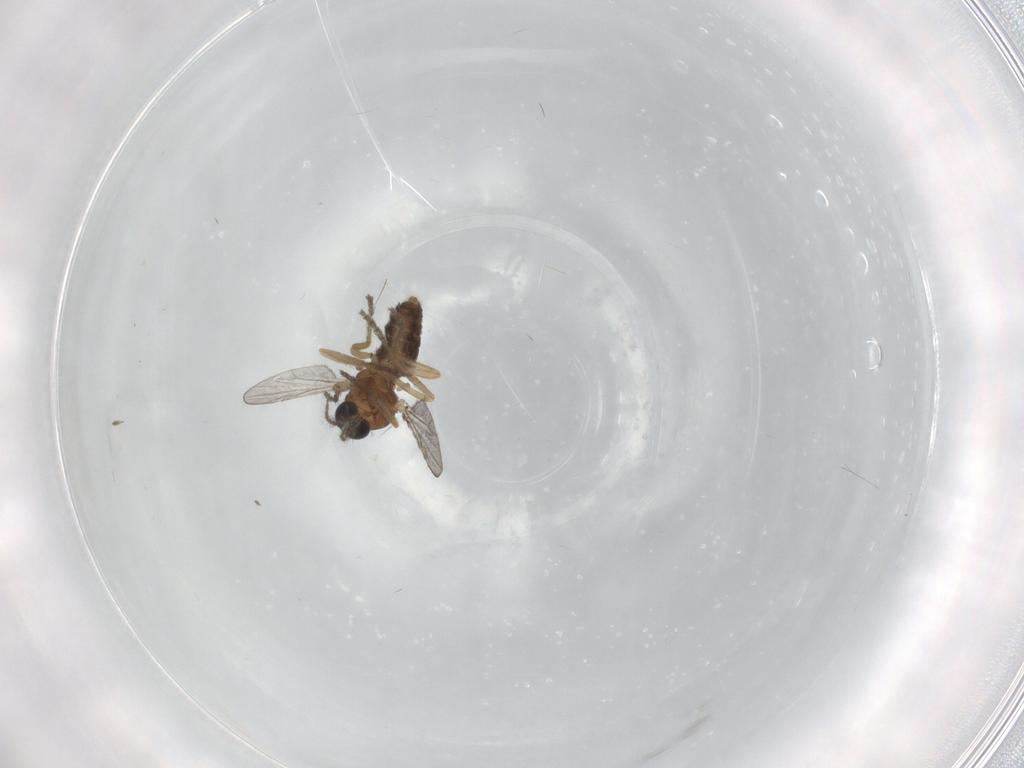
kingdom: Animalia
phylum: Arthropoda
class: Insecta
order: Diptera
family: Ceratopogonidae
